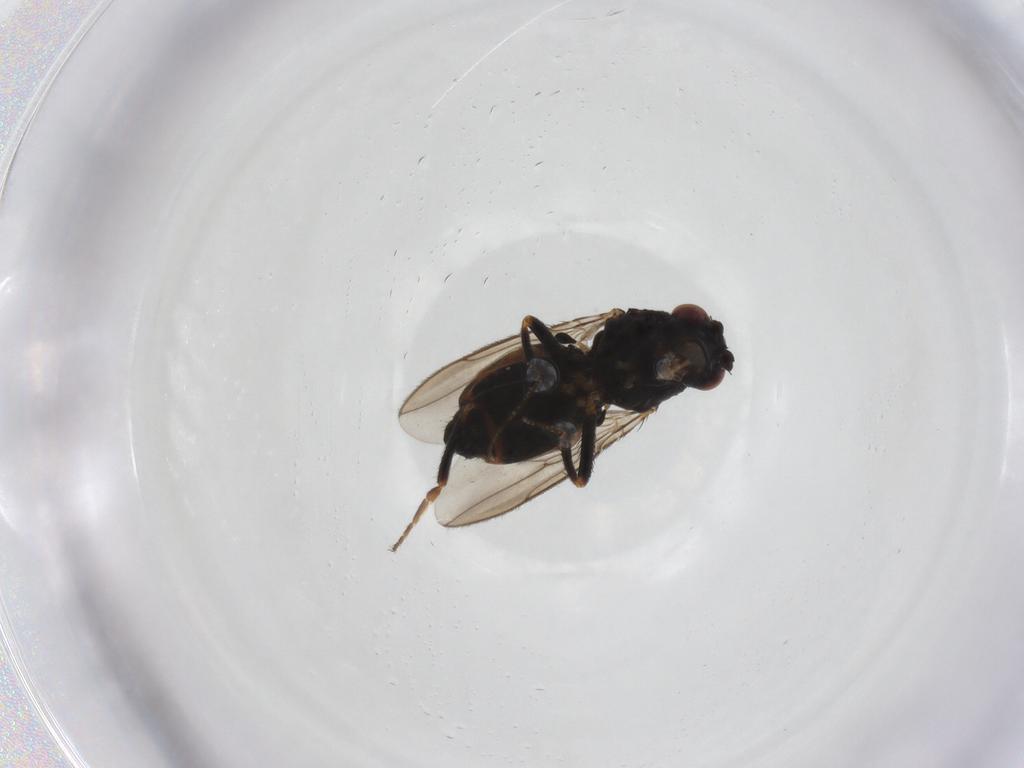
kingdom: Animalia
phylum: Arthropoda
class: Insecta
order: Diptera
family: Sphaeroceridae
